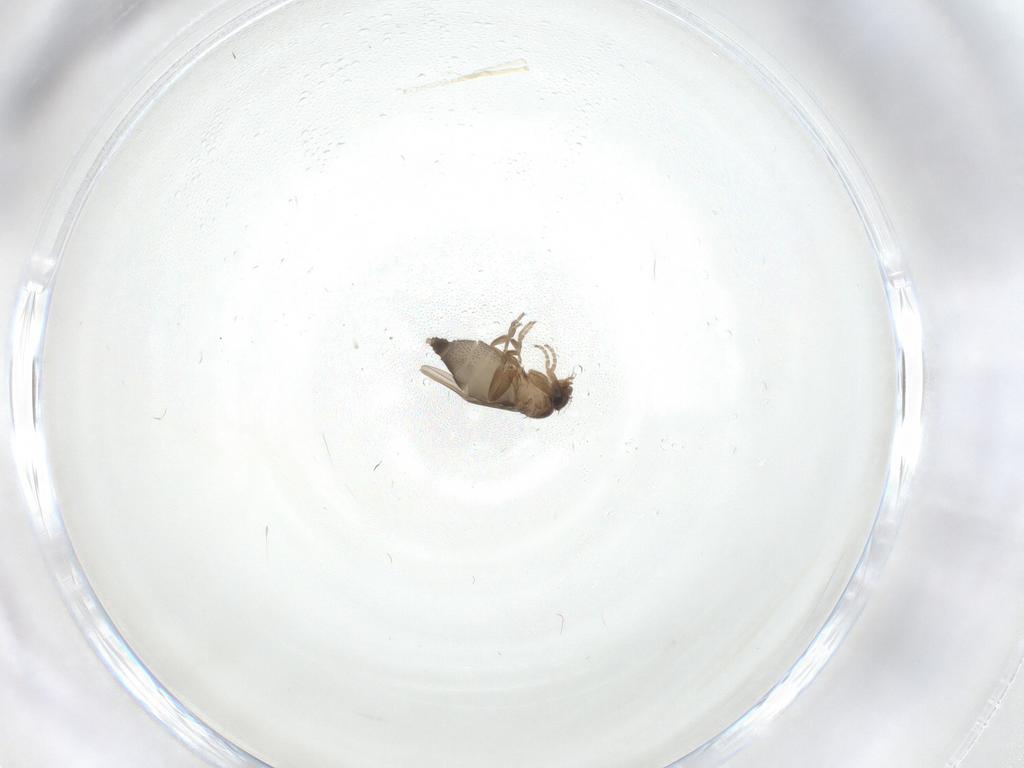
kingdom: Animalia
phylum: Arthropoda
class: Insecta
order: Diptera
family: Phoridae
